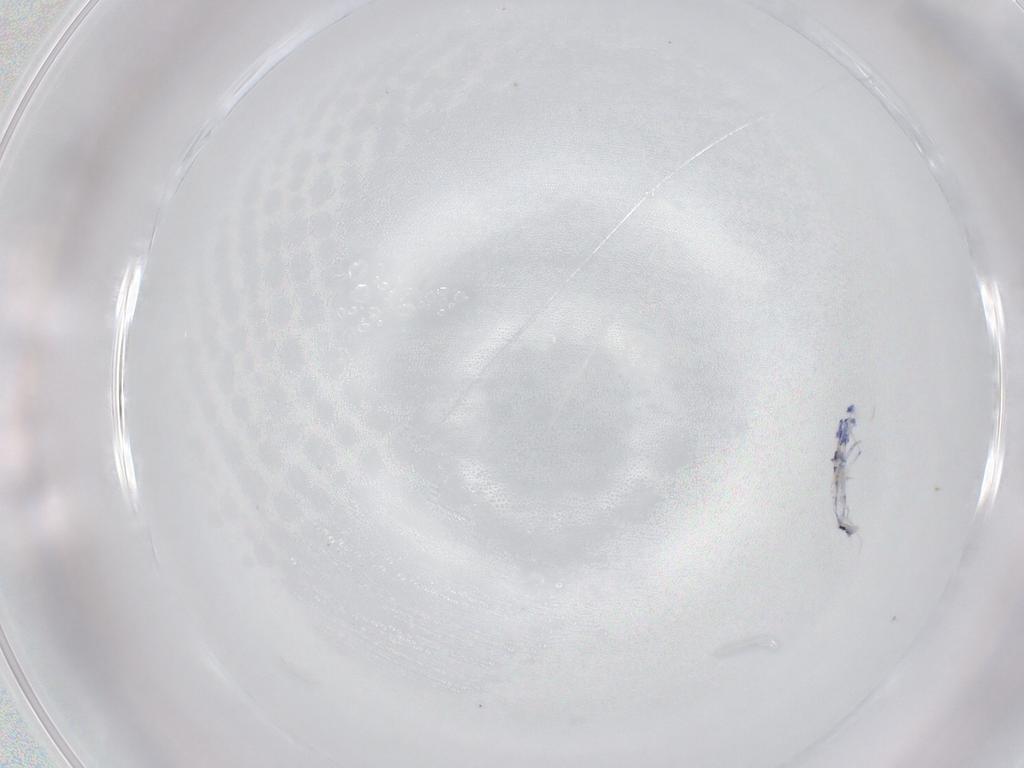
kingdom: Animalia
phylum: Arthropoda
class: Collembola
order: Entomobryomorpha
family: Entomobryidae
